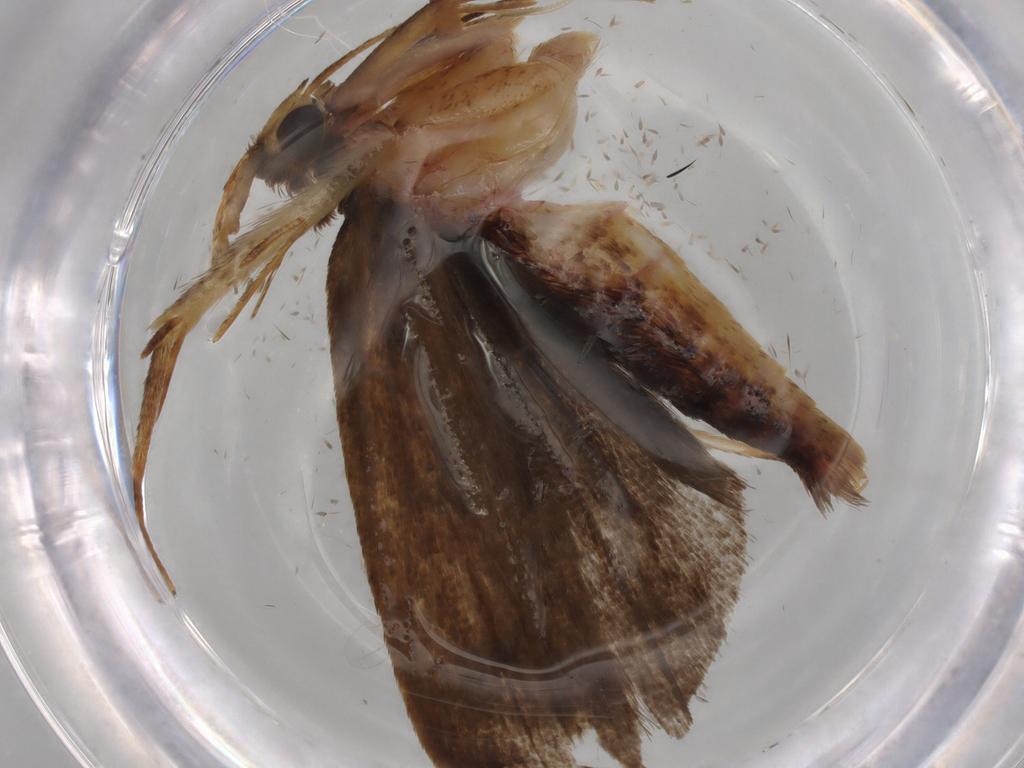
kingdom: Animalia
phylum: Arthropoda
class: Insecta
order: Lepidoptera
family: Autostichidae
